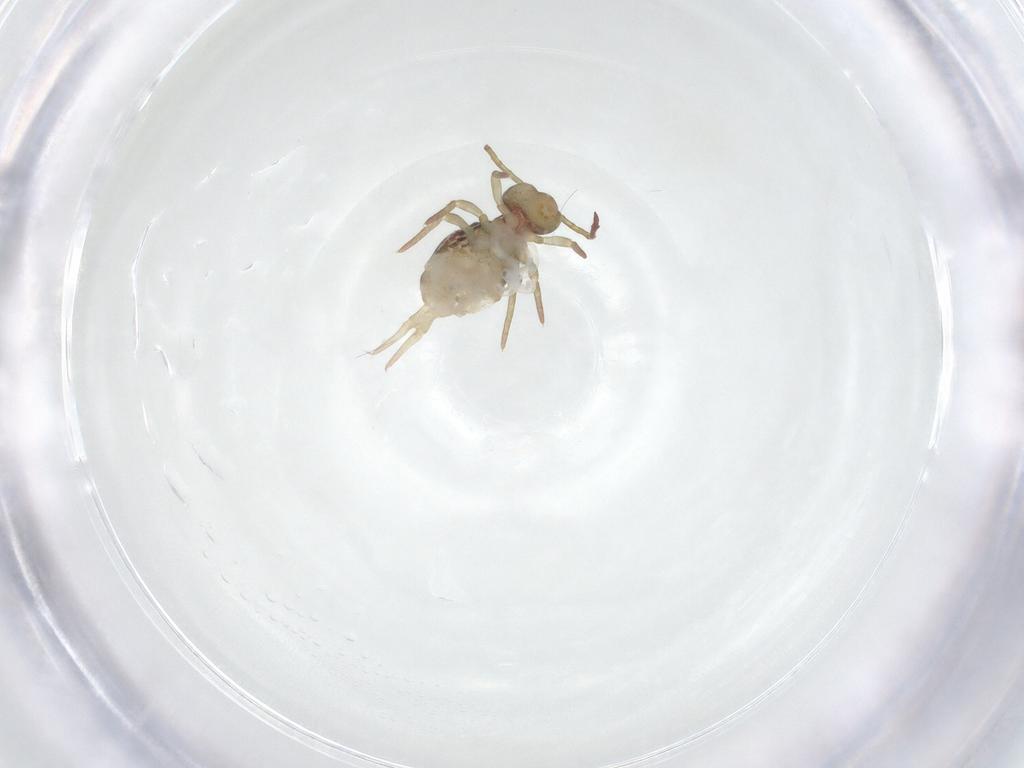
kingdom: Animalia
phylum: Arthropoda
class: Collembola
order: Symphypleona
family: Dicyrtomidae
